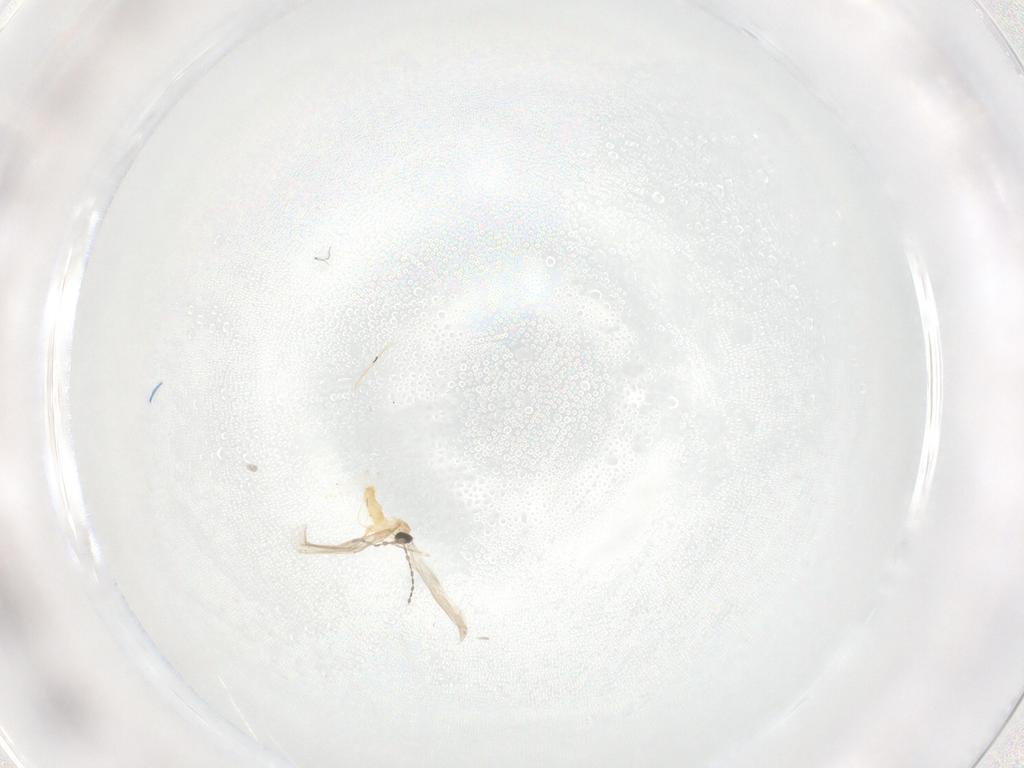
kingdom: Animalia
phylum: Arthropoda
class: Insecta
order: Diptera
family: Cecidomyiidae
